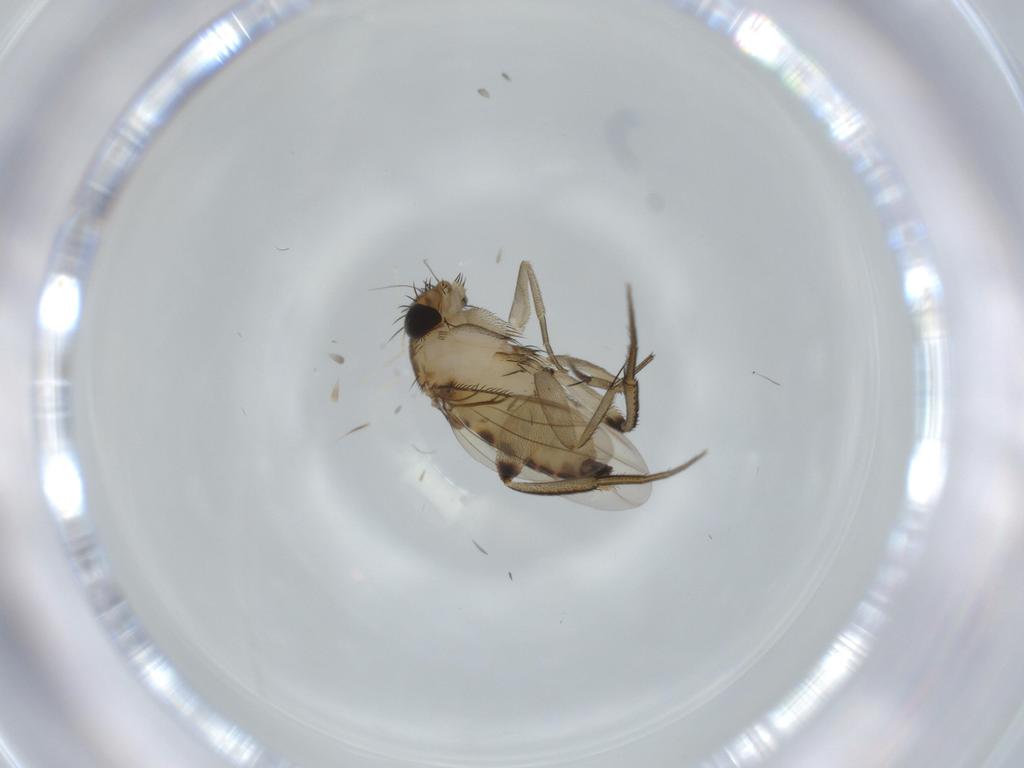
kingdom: Animalia
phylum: Arthropoda
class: Insecta
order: Diptera
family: Phoridae
